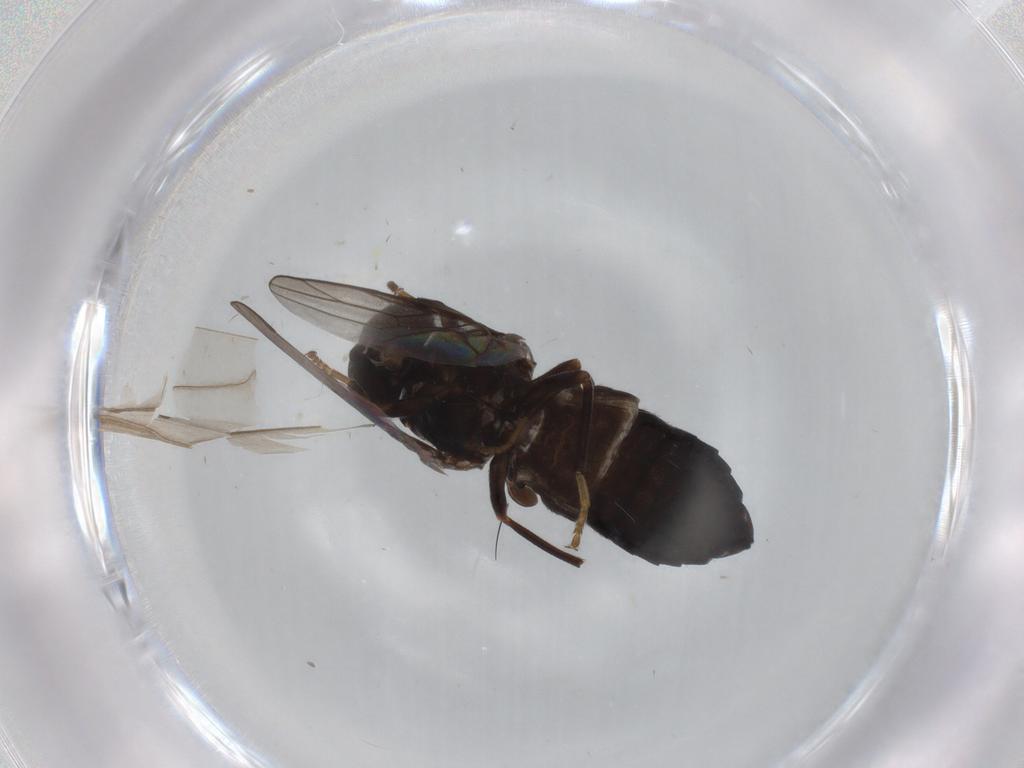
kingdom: Animalia
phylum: Arthropoda
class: Insecta
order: Diptera
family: Cecidomyiidae
